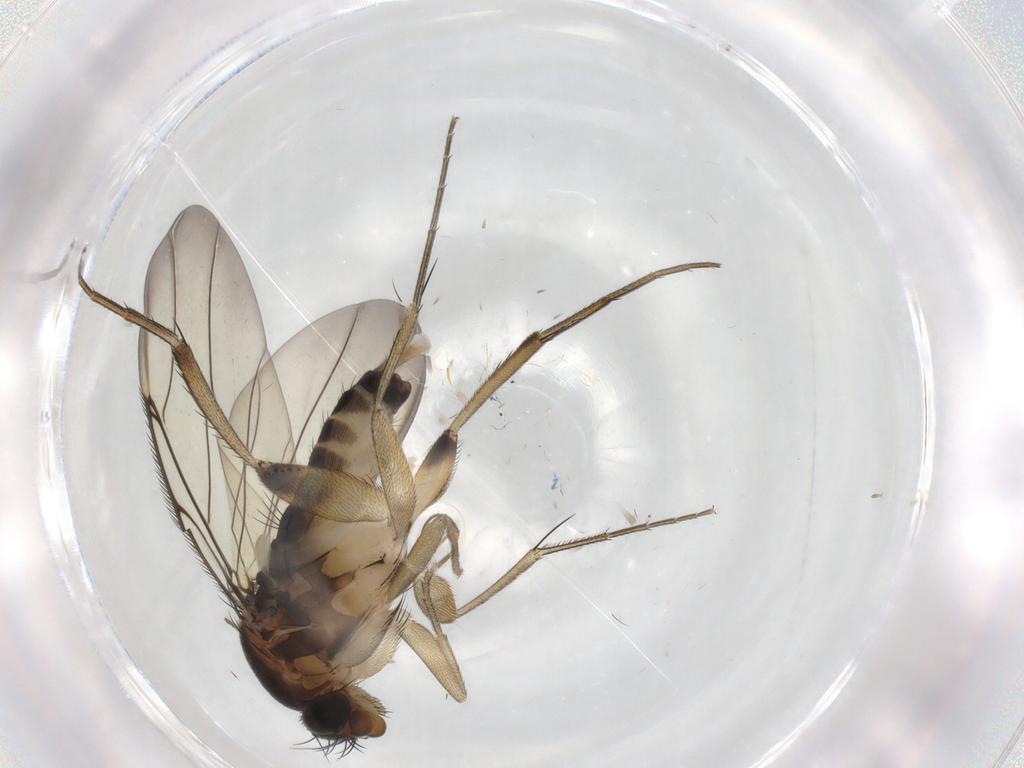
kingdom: Animalia
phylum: Arthropoda
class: Insecta
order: Diptera
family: Phoridae
